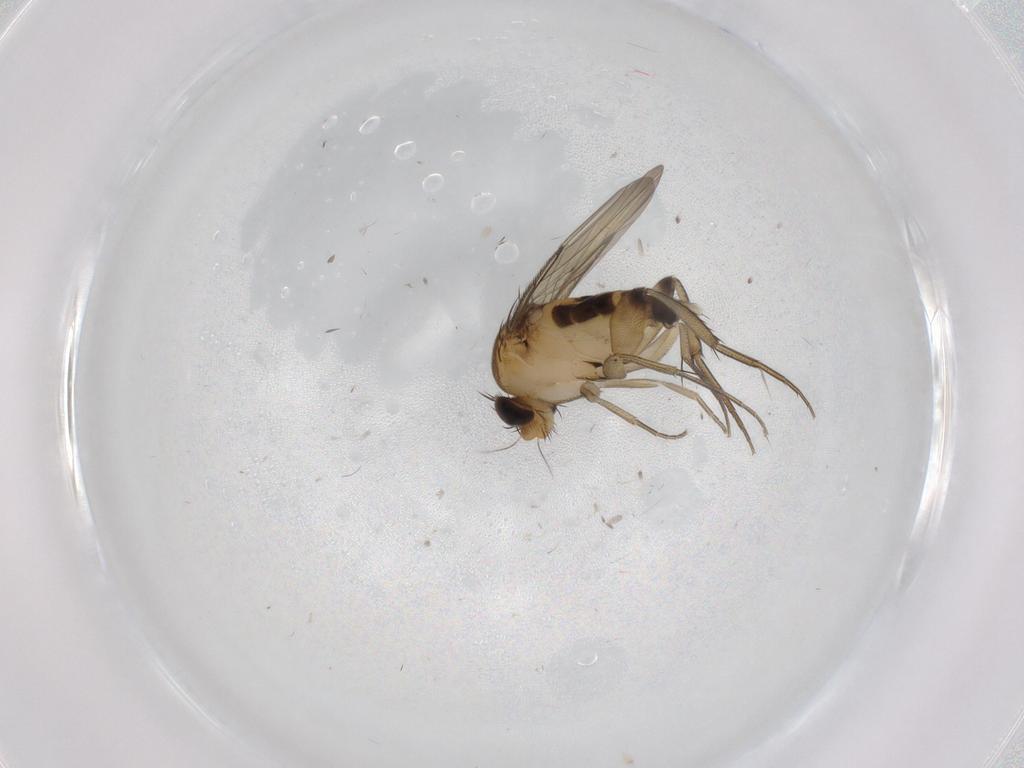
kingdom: Animalia
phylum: Arthropoda
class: Insecta
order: Diptera
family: Phoridae
